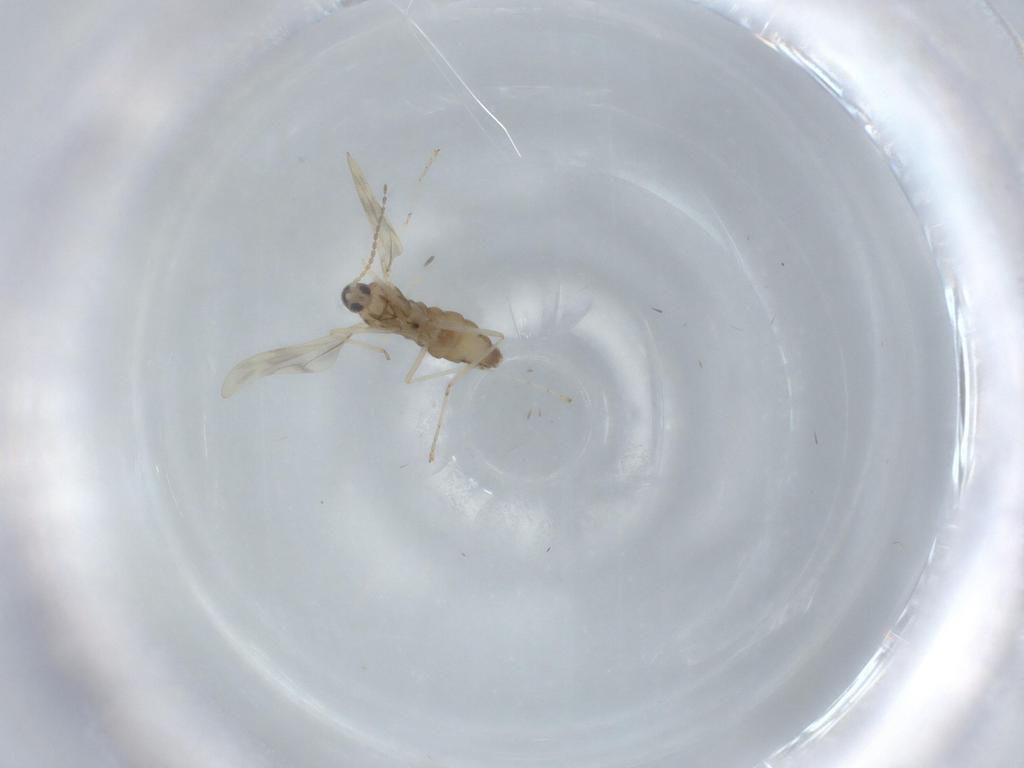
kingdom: Animalia
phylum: Arthropoda
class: Insecta
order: Diptera
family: Cecidomyiidae
